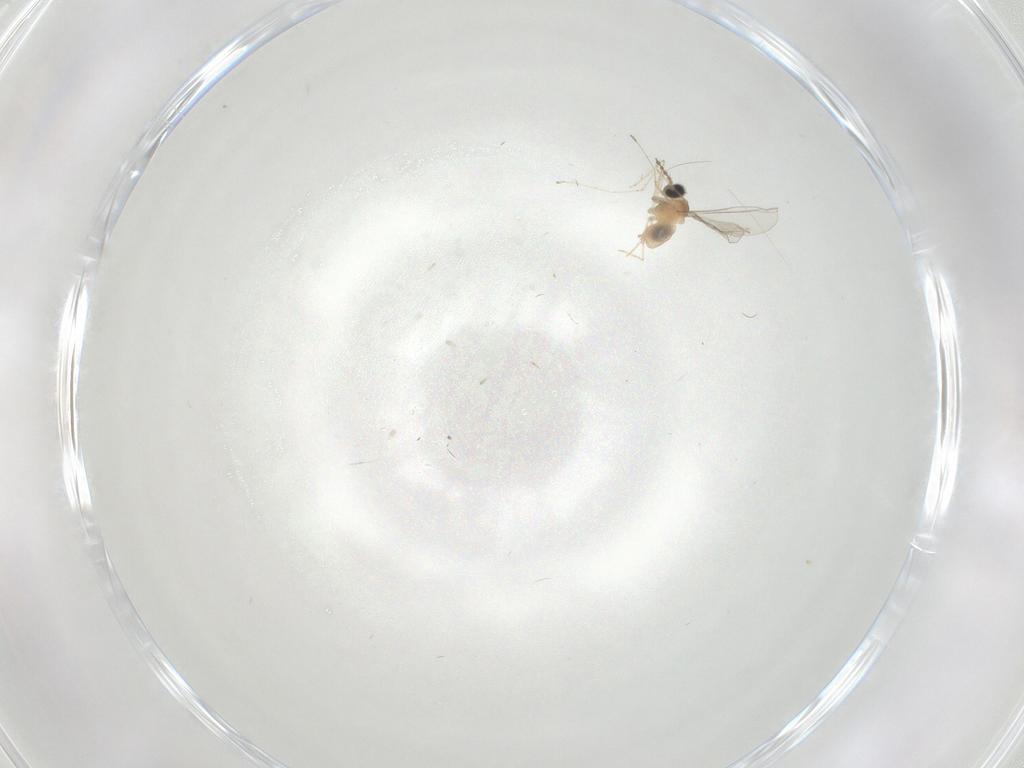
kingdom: Animalia
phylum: Arthropoda
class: Insecta
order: Diptera
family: Cecidomyiidae
